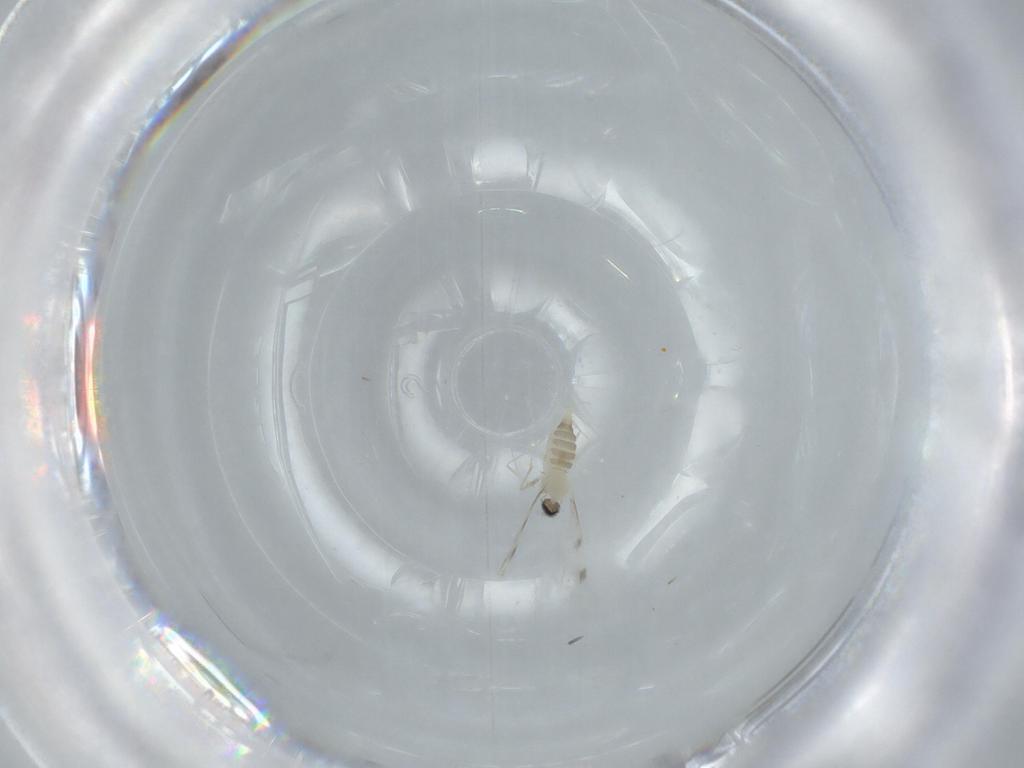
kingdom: Animalia
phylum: Arthropoda
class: Insecta
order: Diptera
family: Cecidomyiidae
